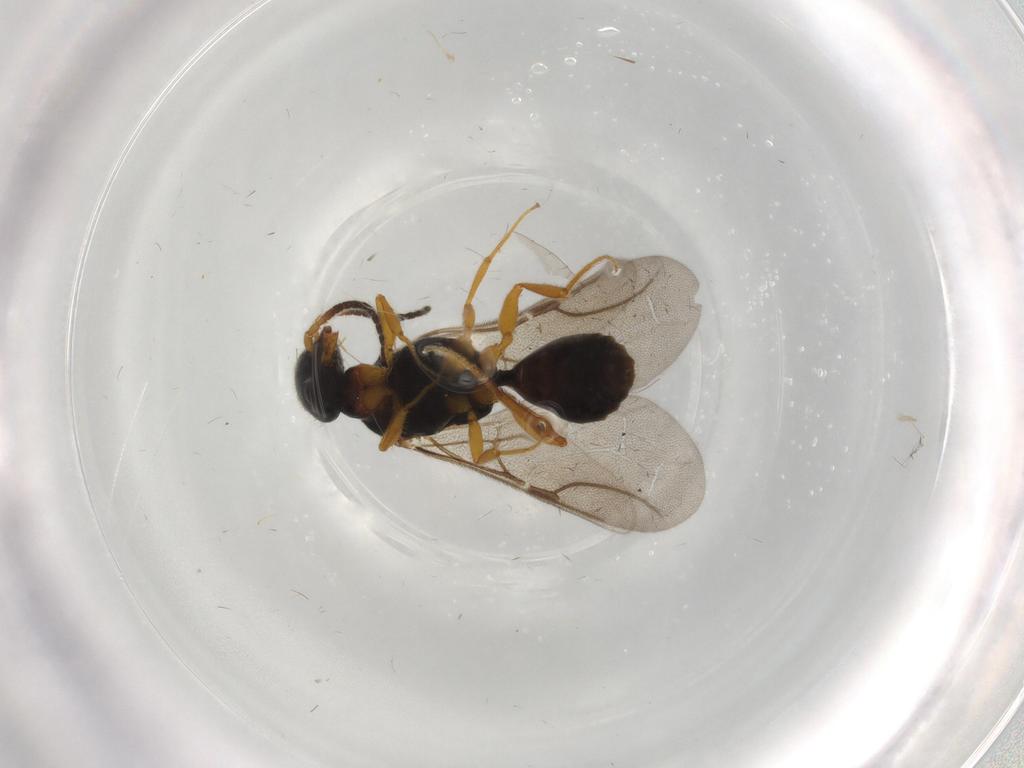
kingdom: Animalia
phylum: Arthropoda
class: Insecta
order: Hymenoptera
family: Bethylidae
